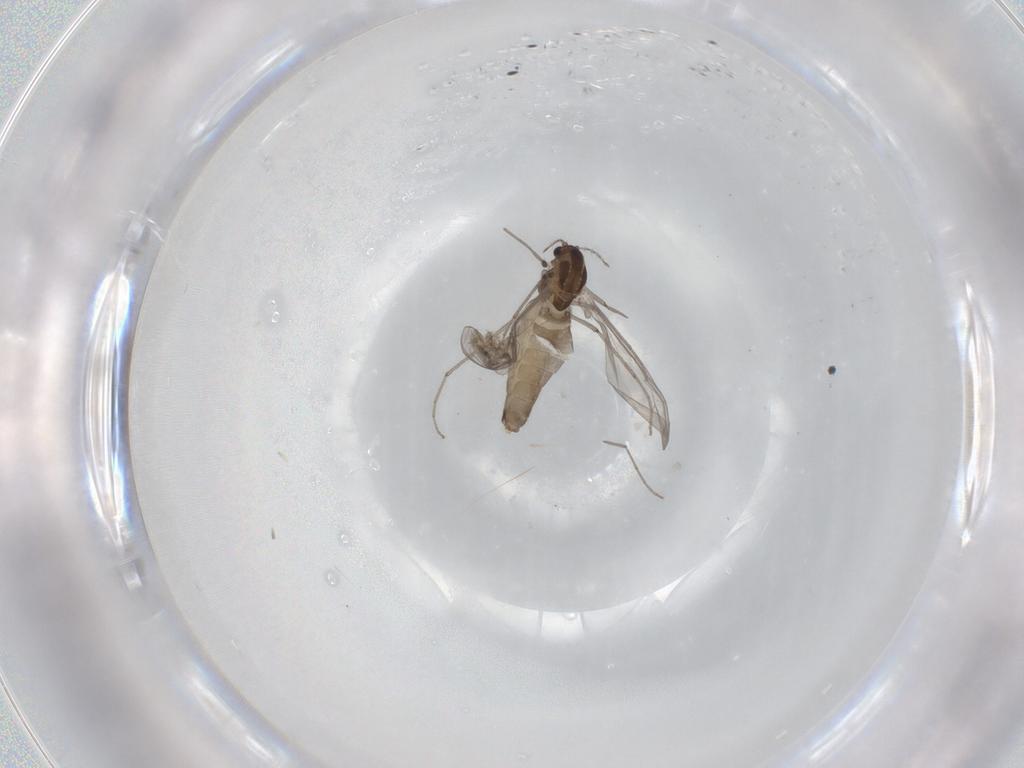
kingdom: Animalia
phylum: Arthropoda
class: Insecta
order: Diptera
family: Chironomidae
